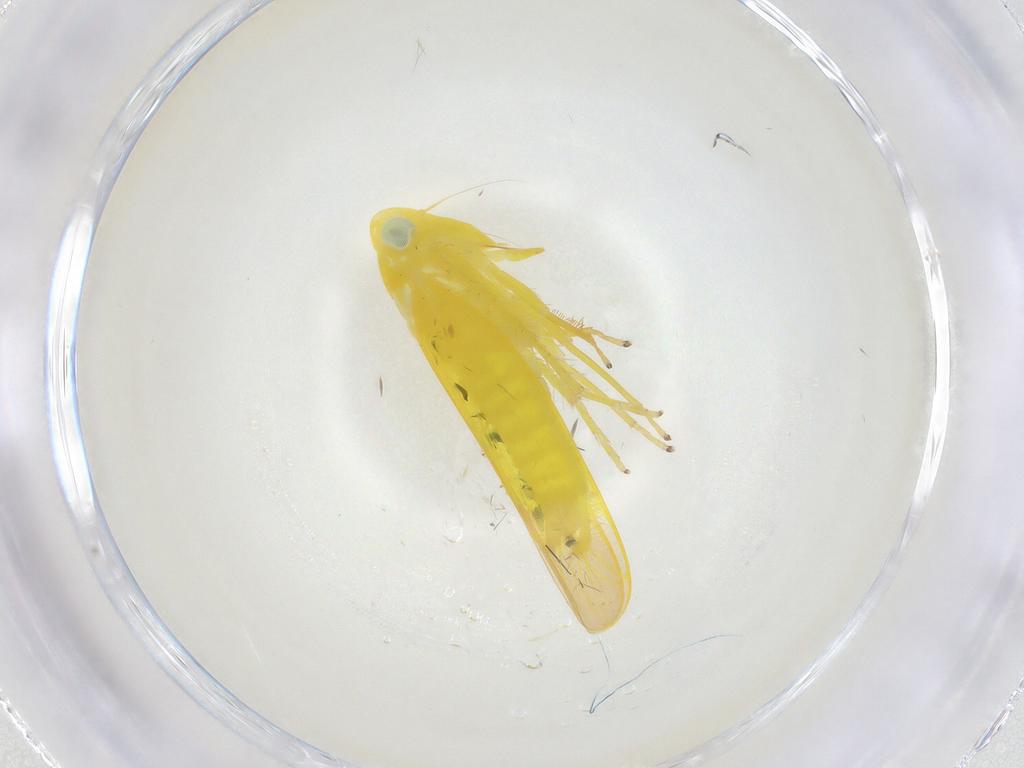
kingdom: Animalia
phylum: Arthropoda
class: Insecta
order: Hemiptera
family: Cicadellidae
